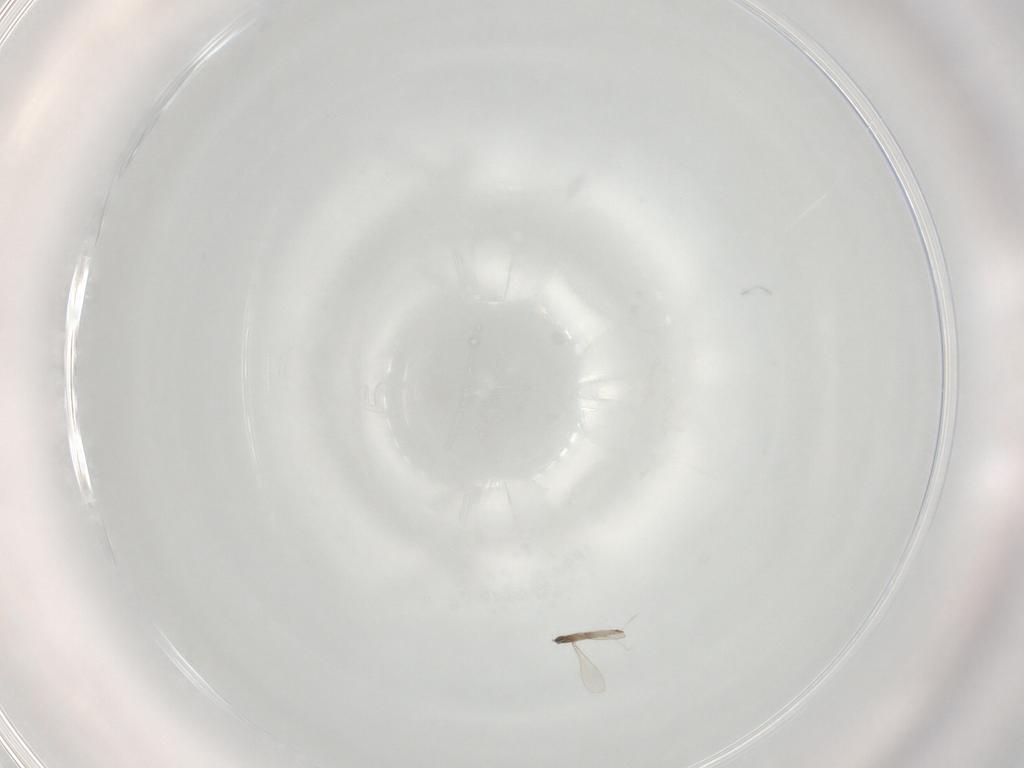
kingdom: Animalia
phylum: Arthropoda
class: Insecta
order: Diptera
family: Tabanidae
